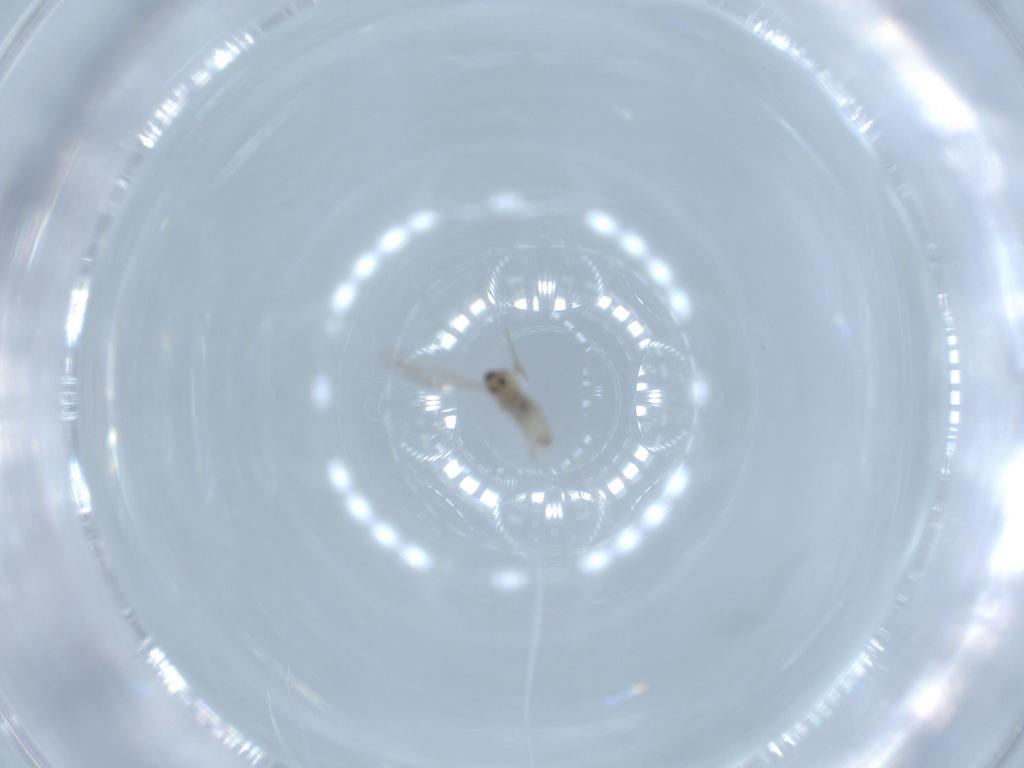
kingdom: Animalia
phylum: Arthropoda
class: Insecta
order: Diptera
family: Cecidomyiidae
